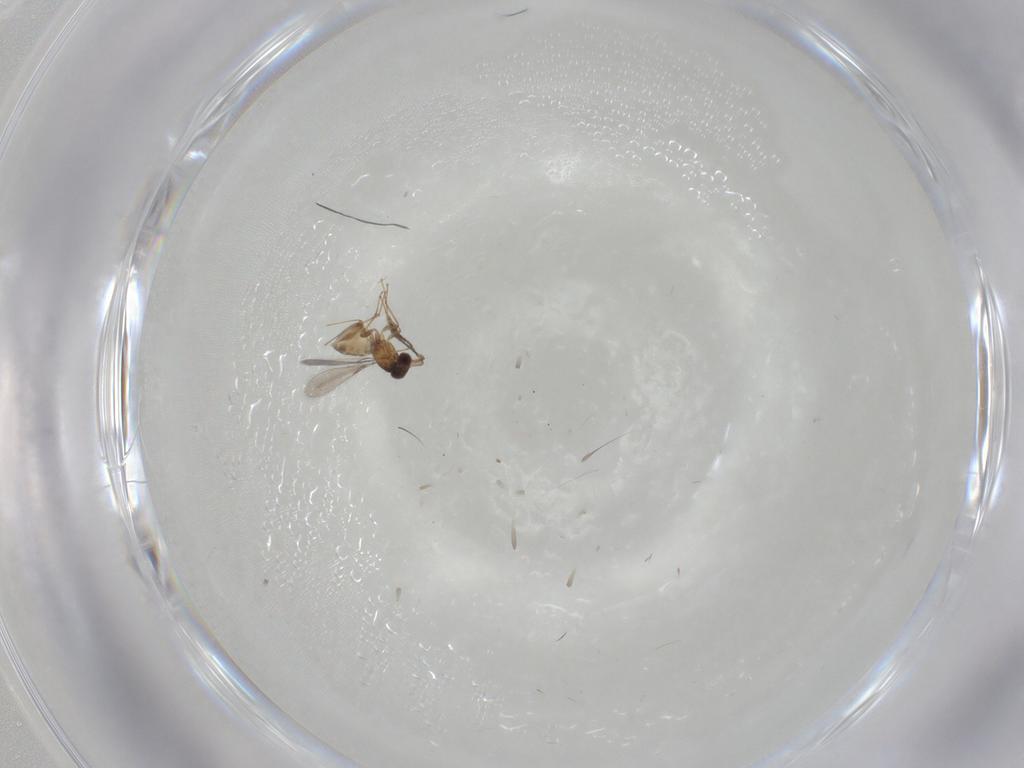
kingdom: Animalia
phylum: Arthropoda
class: Insecta
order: Hymenoptera
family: Mymaridae
